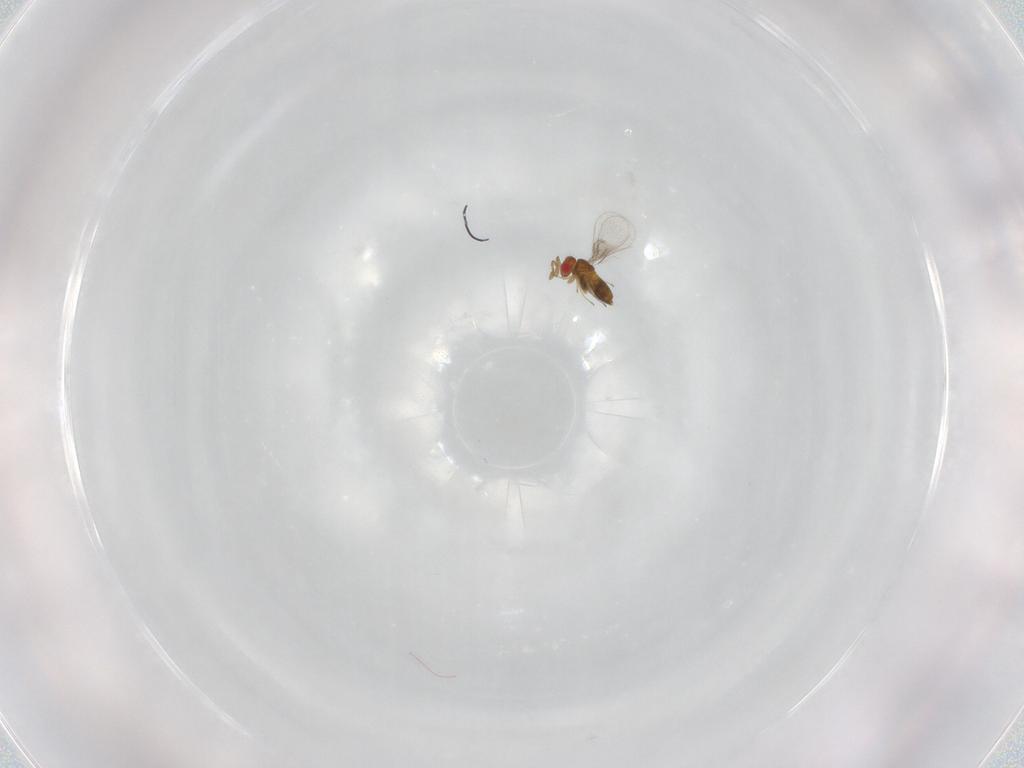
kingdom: Animalia
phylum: Arthropoda
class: Insecta
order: Hymenoptera
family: Trichogrammatidae
